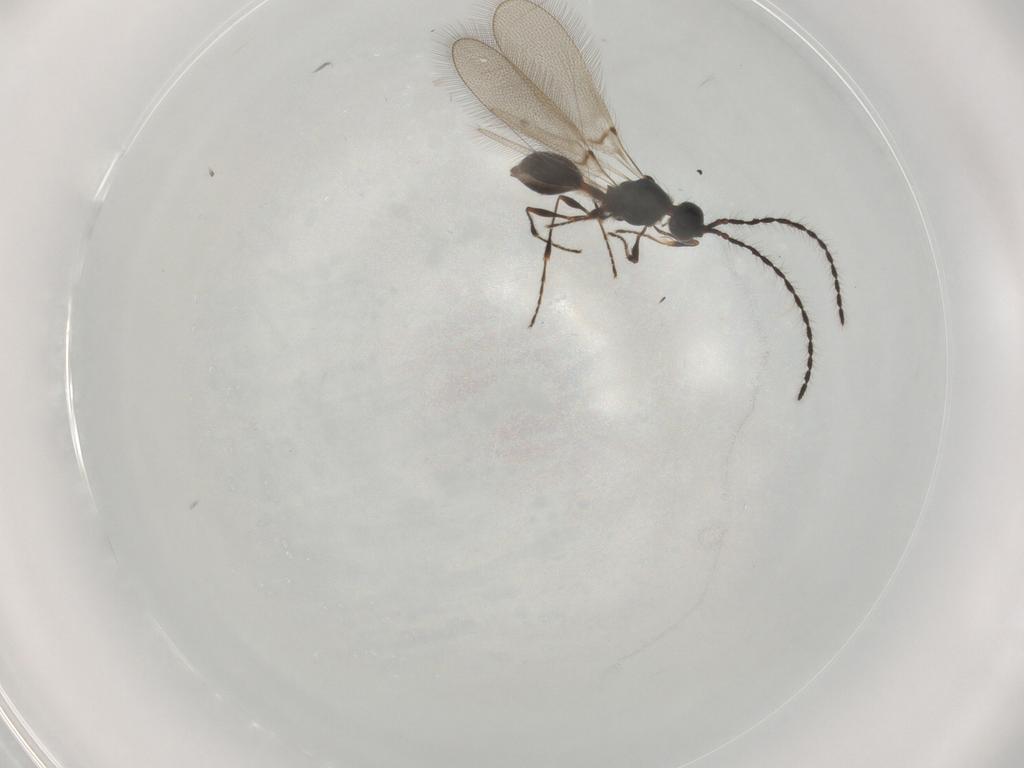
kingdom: Animalia
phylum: Arthropoda
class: Insecta
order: Hymenoptera
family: Diapriidae
